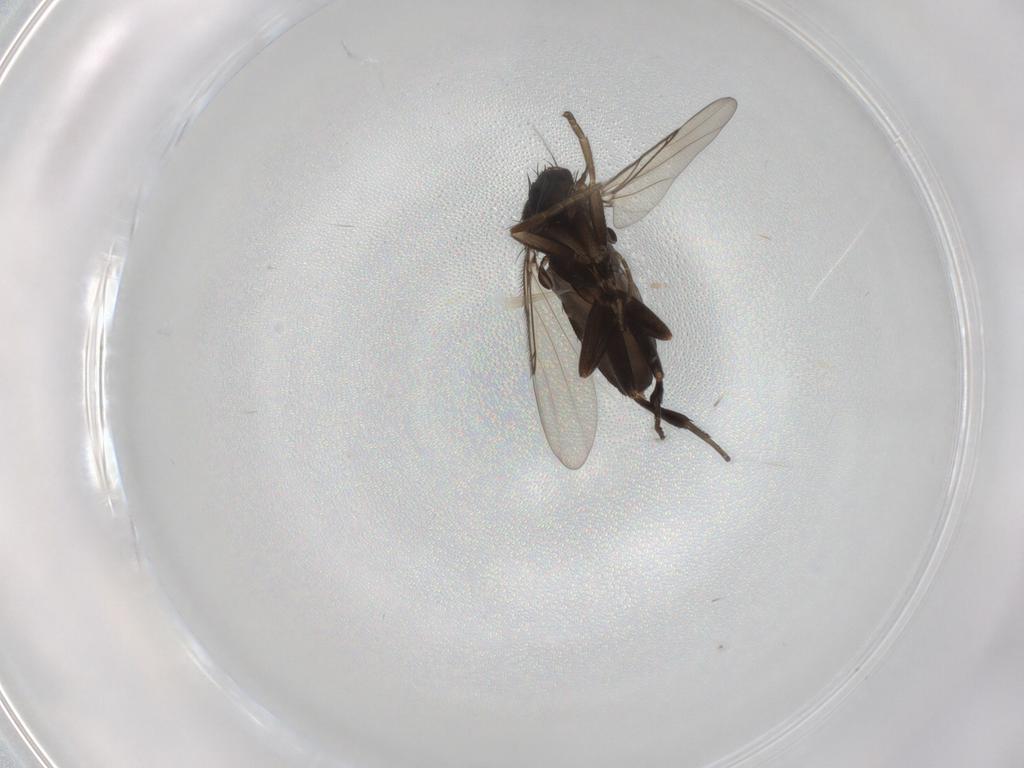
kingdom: Animalia
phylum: Arthropoda
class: Insecta
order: Diptera
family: Phoridae
